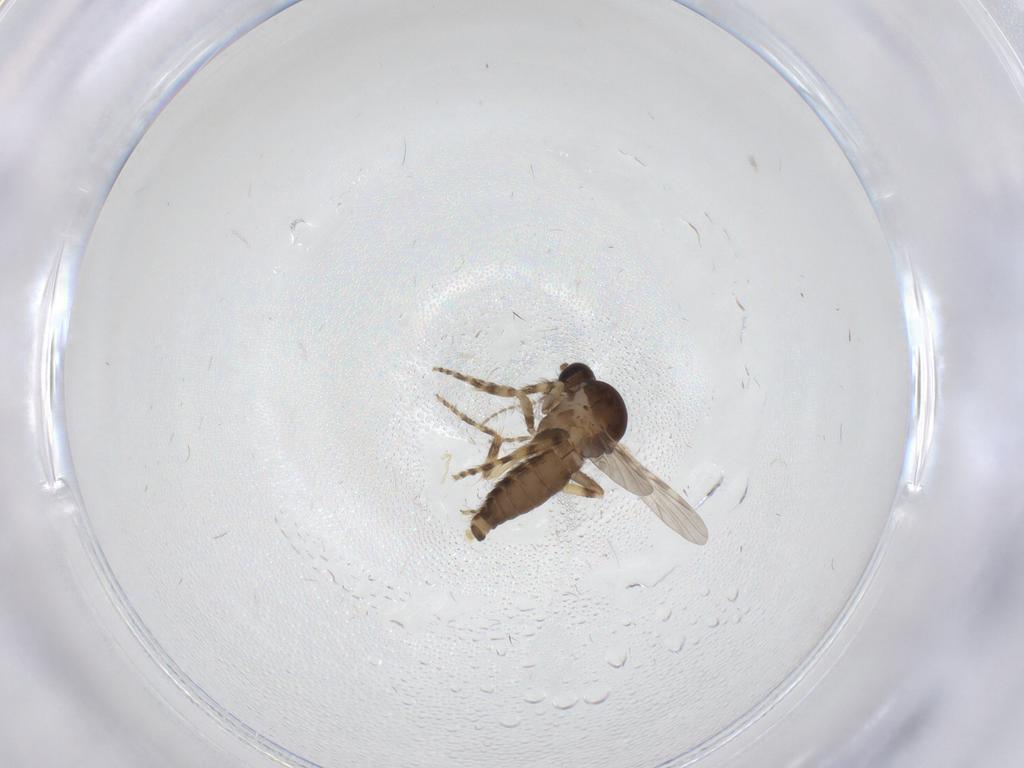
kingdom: Animalia
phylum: Arthropoda
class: Insecta
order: Diptera
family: Ceratopogonidae
